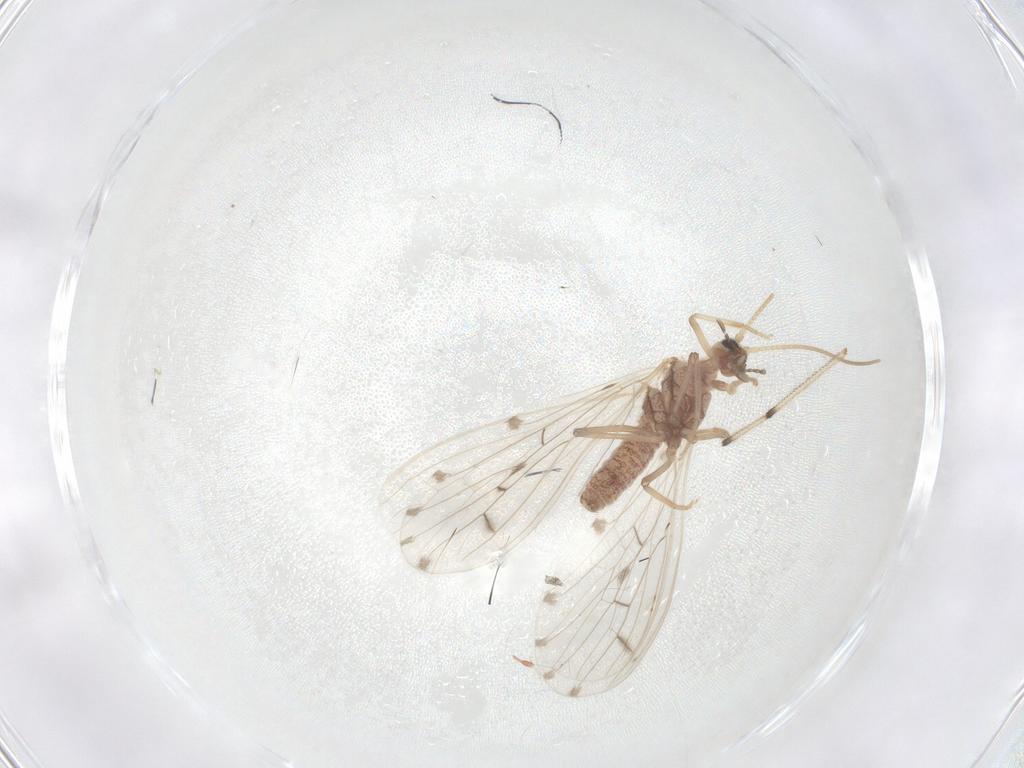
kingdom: Animalia
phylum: Arthropoda
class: Insecta
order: Neuroptera
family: Coniopterygidae
